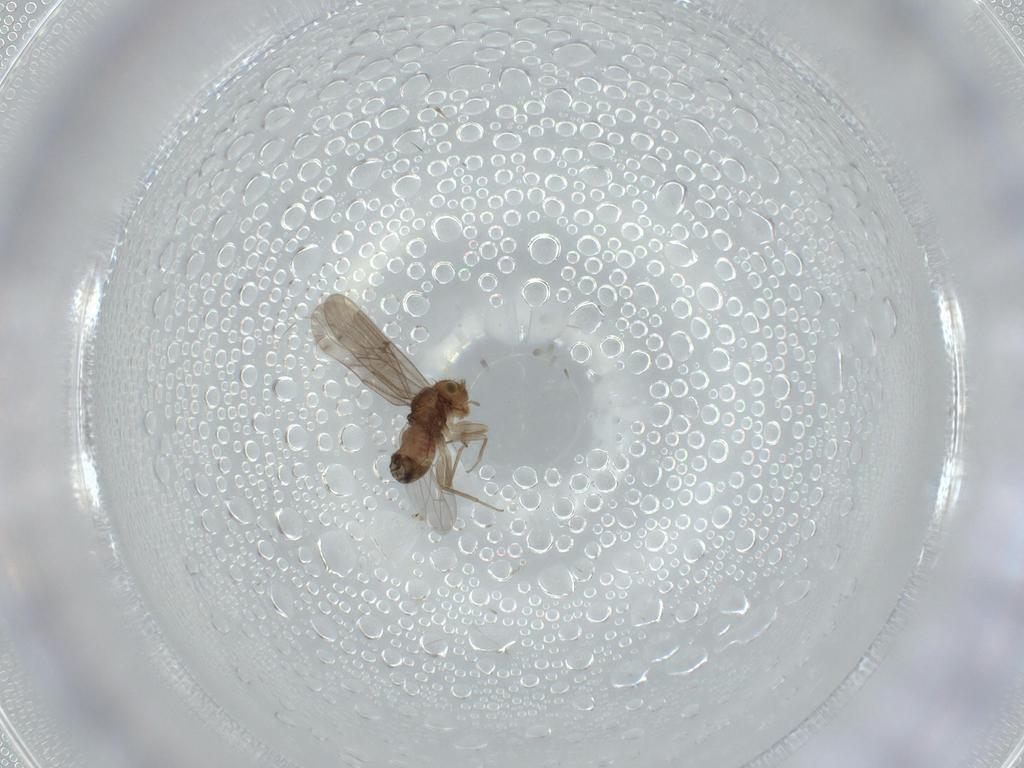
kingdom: Animalia
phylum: Arthropoda
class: Insecta
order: Psocodea
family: Ectopsocidae
